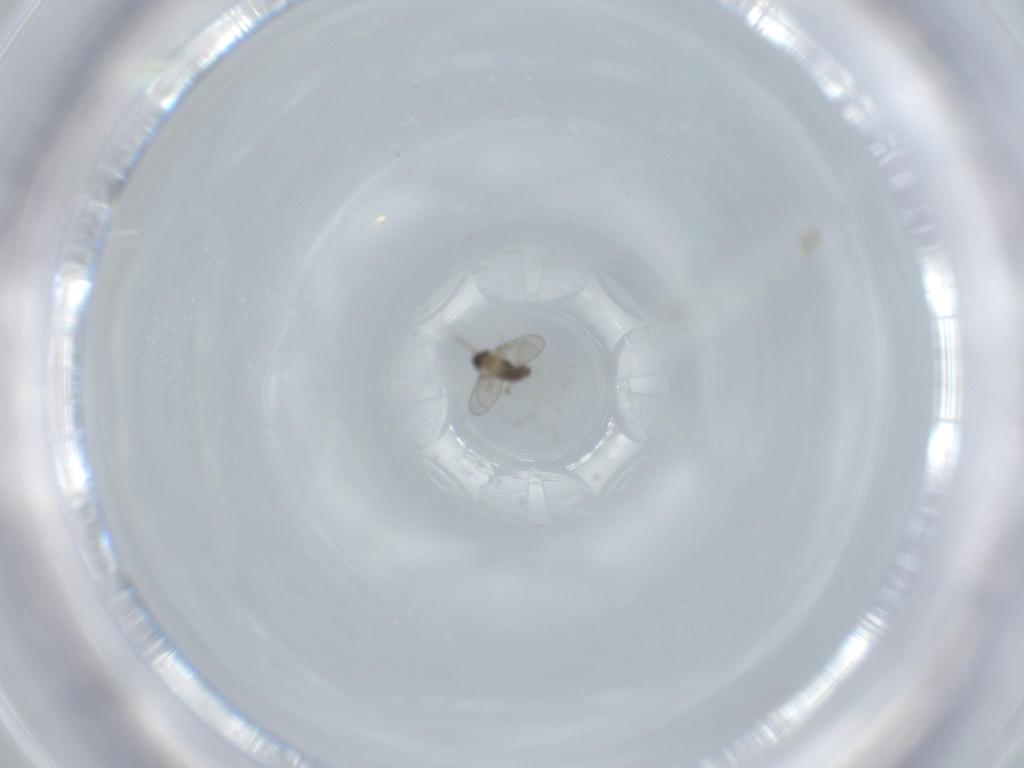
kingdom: Animalia
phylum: Arthropoda
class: Insecta
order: Diptera
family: Cecidomyiidae
